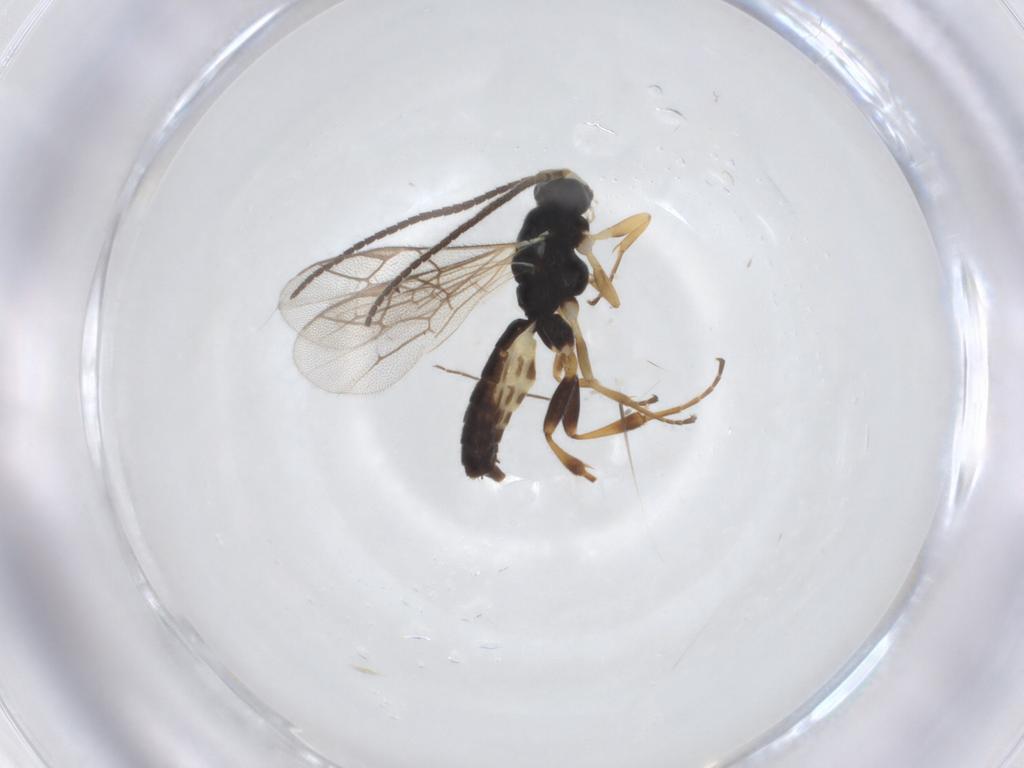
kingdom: Animalia
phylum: Arthropoda
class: Insecta
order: Hymenoptera
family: Ichneumonidae
